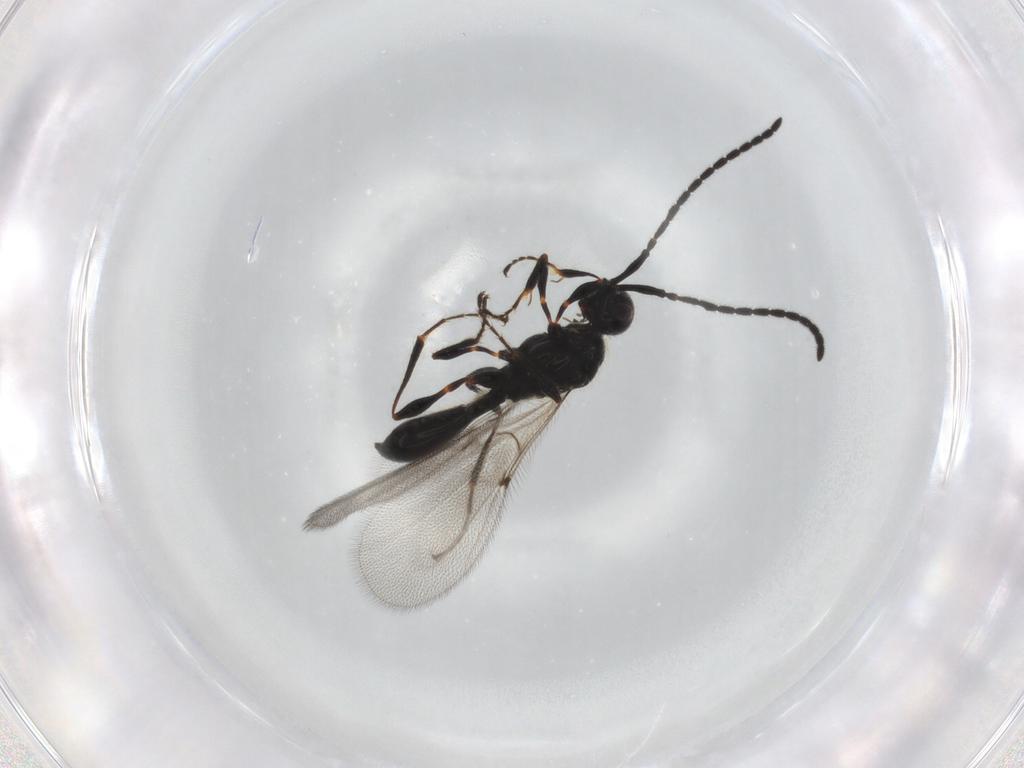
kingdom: Animalia
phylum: Arthropoda
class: Insecta
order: Hymenoptera
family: Diapriidae
